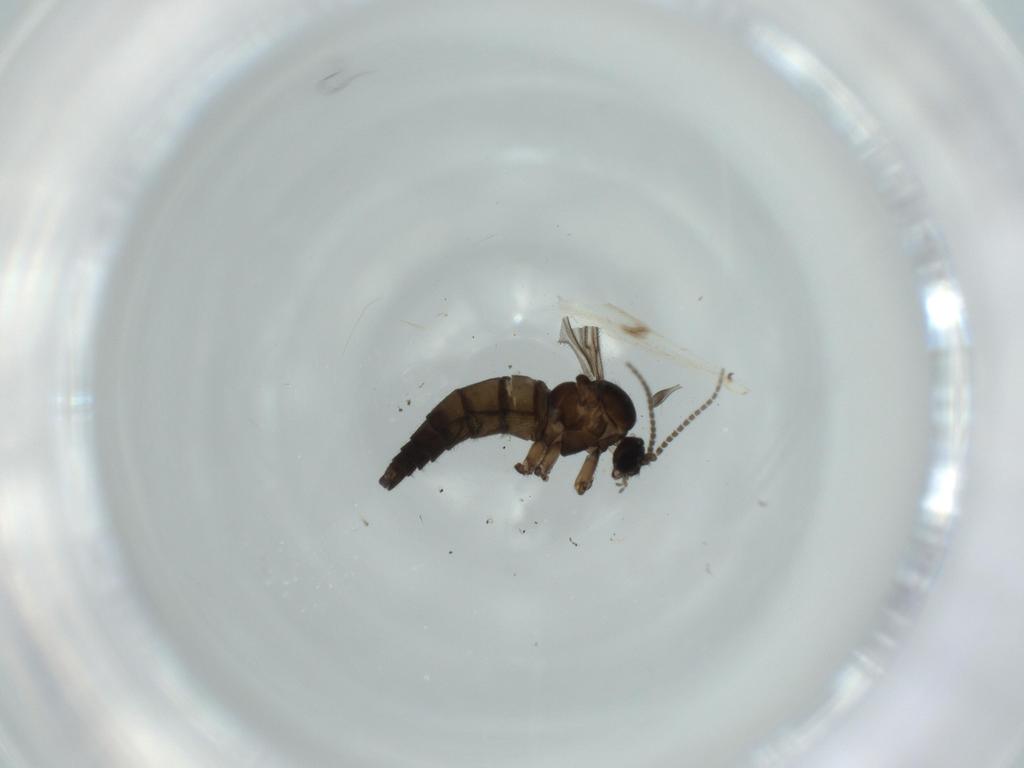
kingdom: Animalia
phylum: Arthropoda
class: Insecta
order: Diptera
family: Sciaridae
